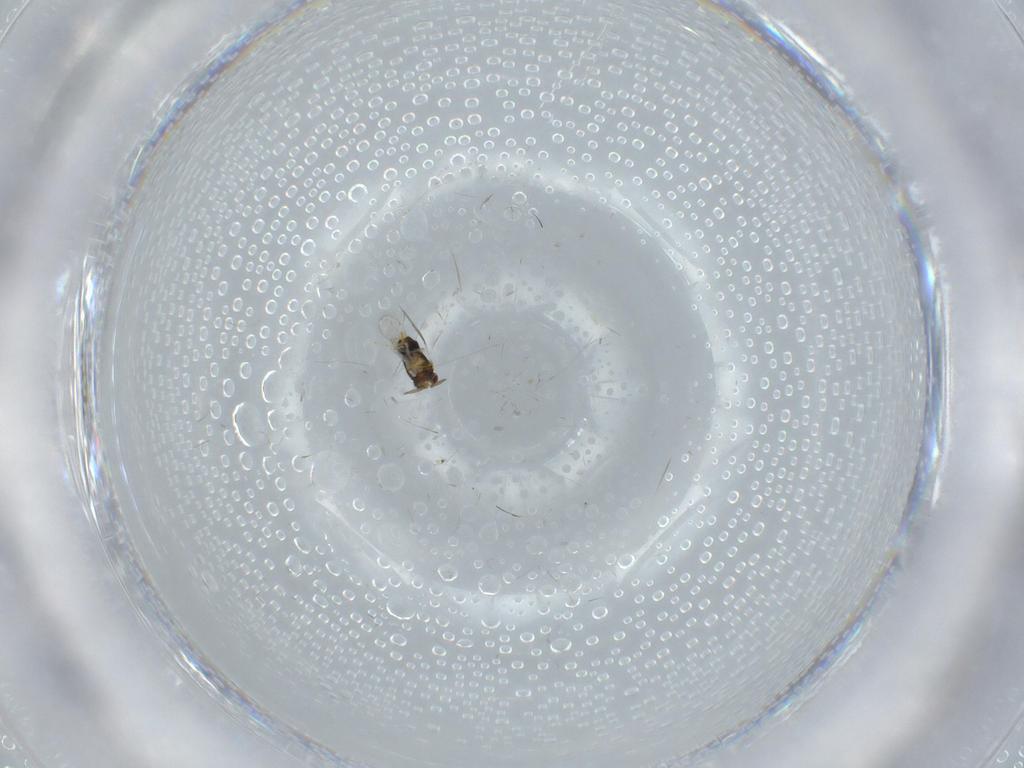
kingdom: Animalia
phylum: Arthropoda
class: Insecta
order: Hymenoptera
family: Aphelinidae
